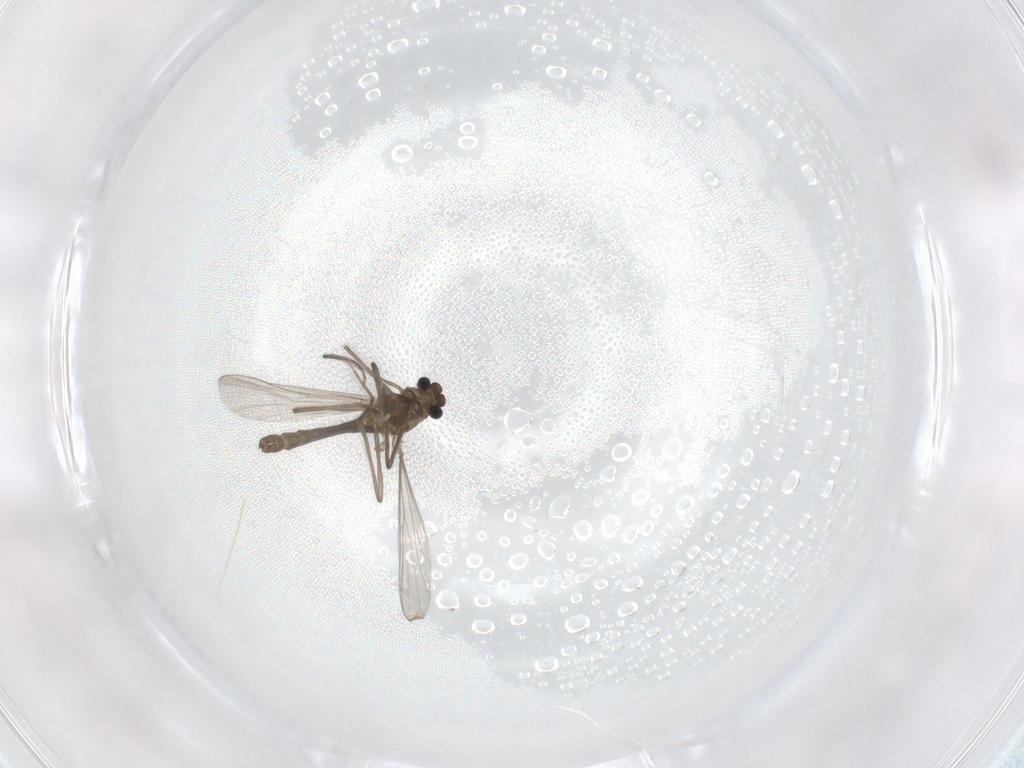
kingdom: Animalia
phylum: Arthropoda
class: Insecta
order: Diptera
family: Chironomidae
